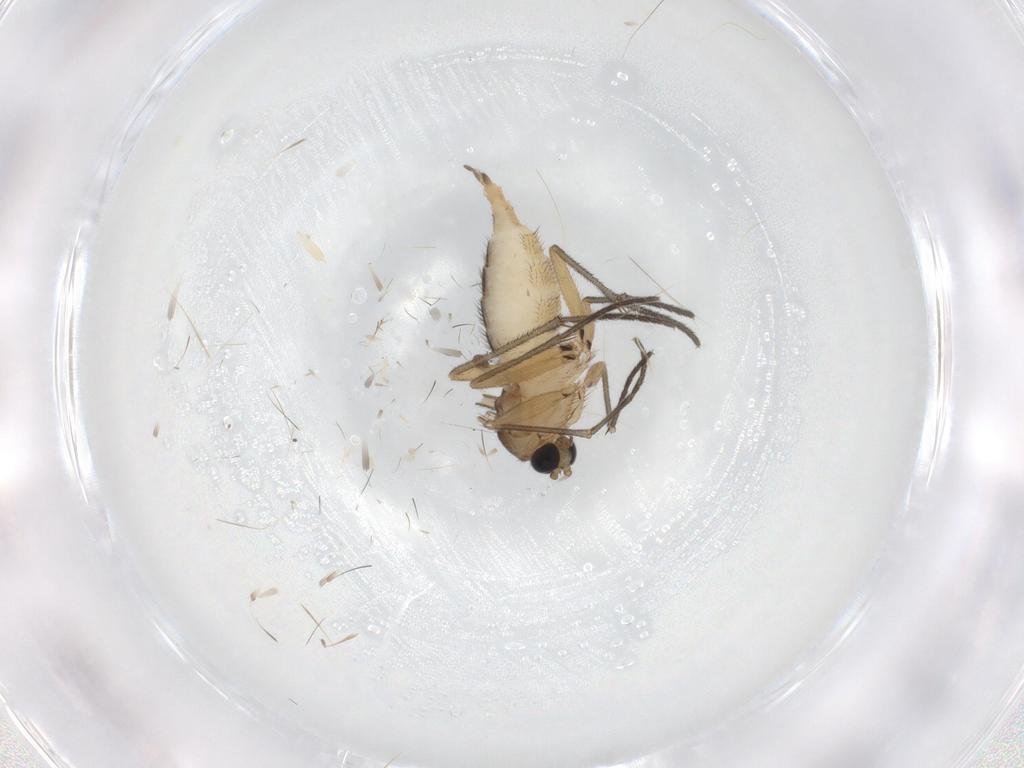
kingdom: Animalia
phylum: Arthropoda
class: Insecta
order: Diptera
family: Sciaridae
